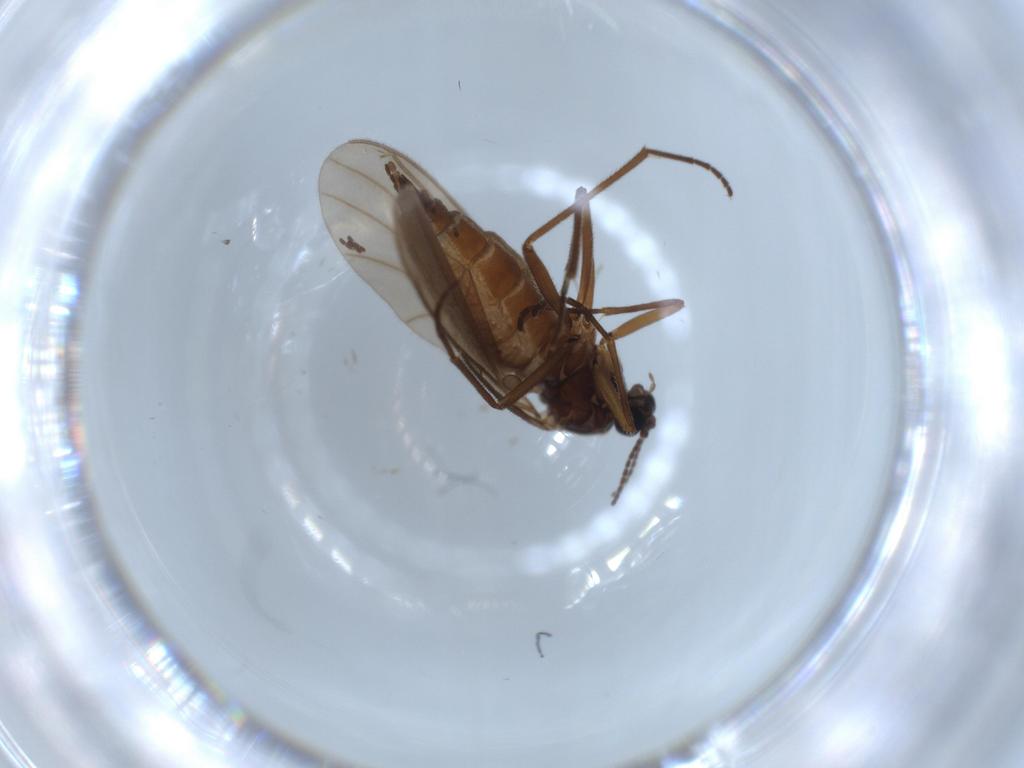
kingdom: Animalia
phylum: Arthropoda
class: Insecta
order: Diptera
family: Sciaridae
